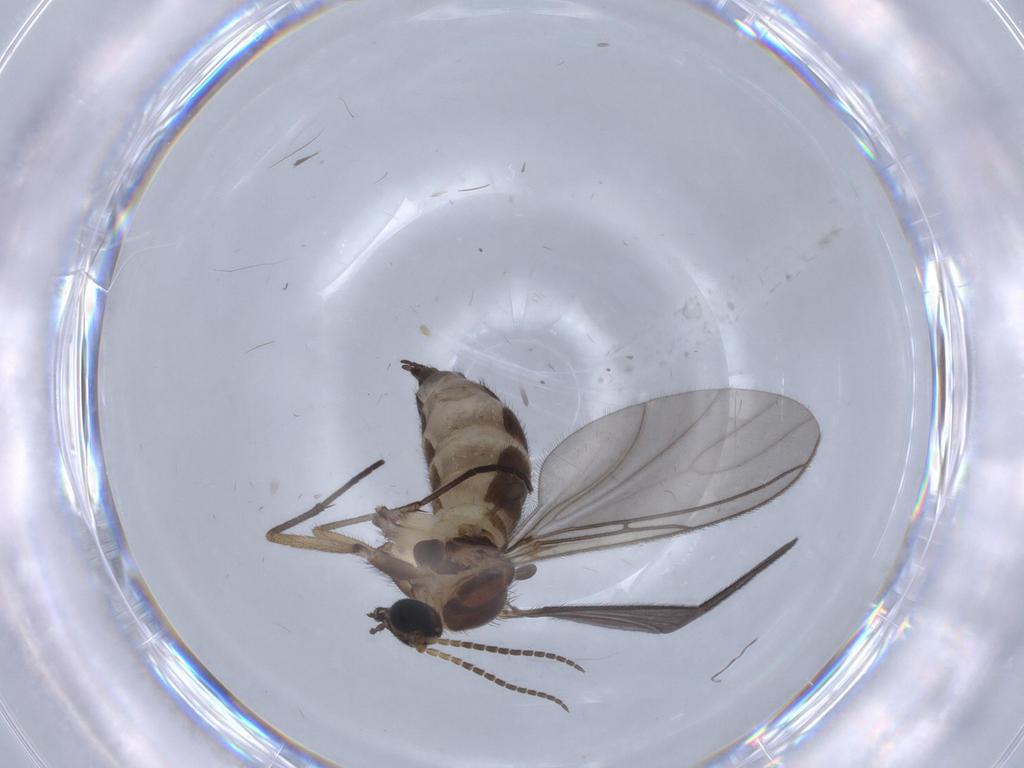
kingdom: Animalia
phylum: Arthropoda
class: Insecta
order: Diptera
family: Sciaridae
